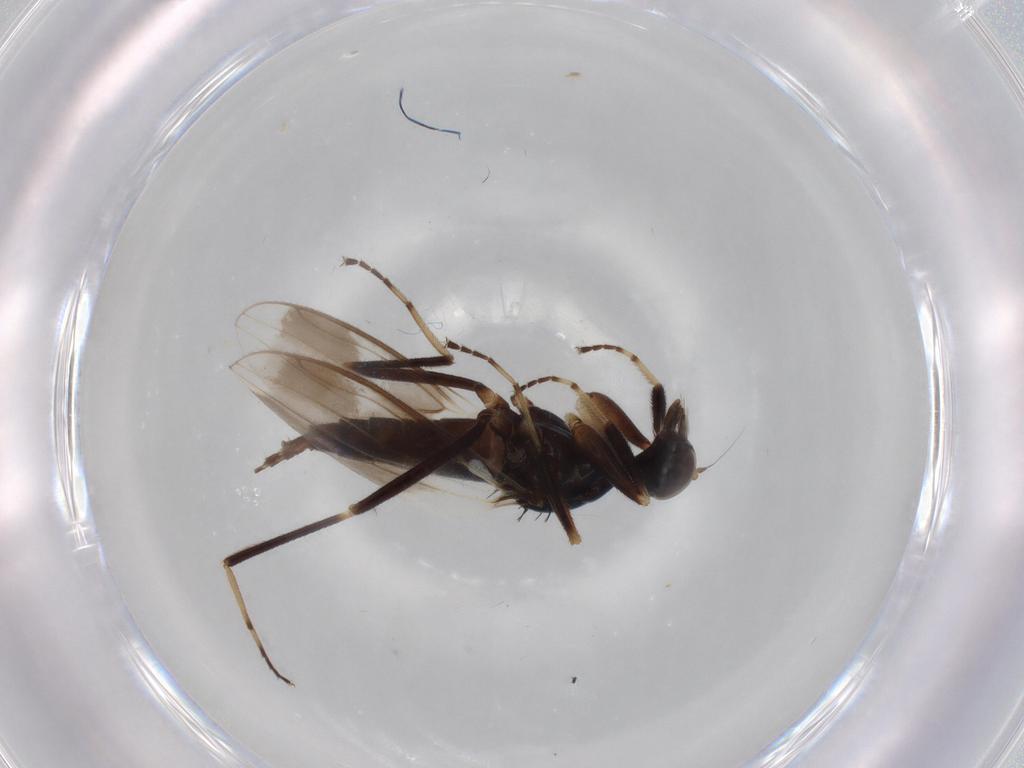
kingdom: Animalia
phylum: Arthropoda
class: Insecta
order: Diptera
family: Hybotidae
